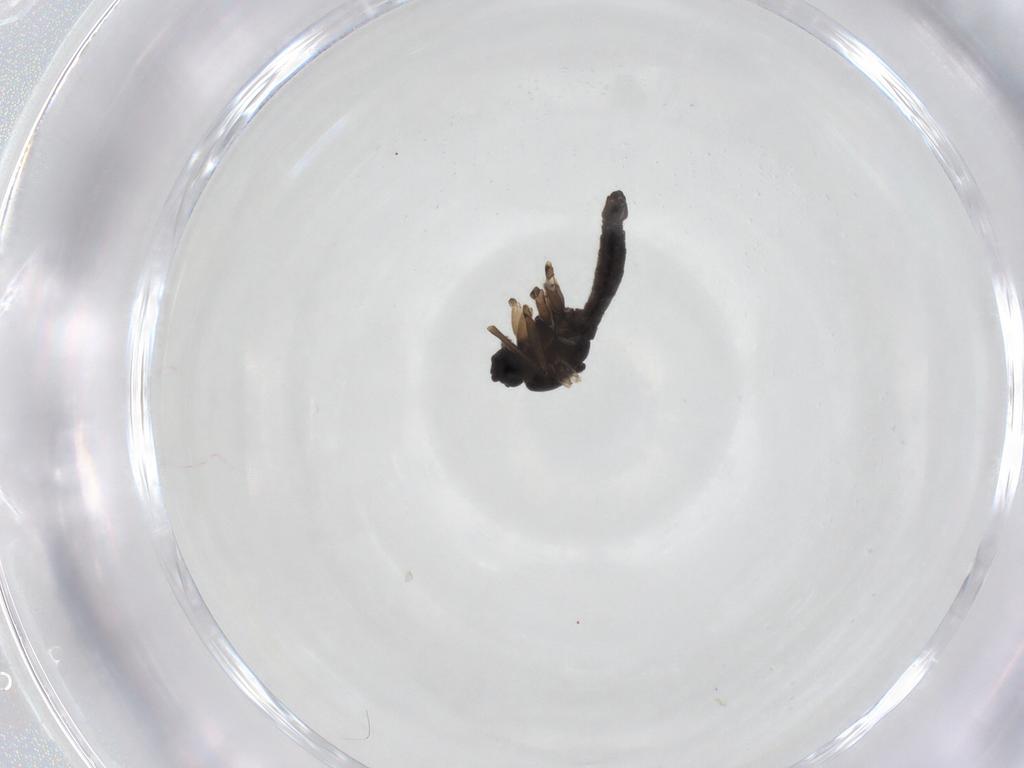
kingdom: Animalia
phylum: Arthropoda
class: Insecta
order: Diptera
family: Sciaridae
